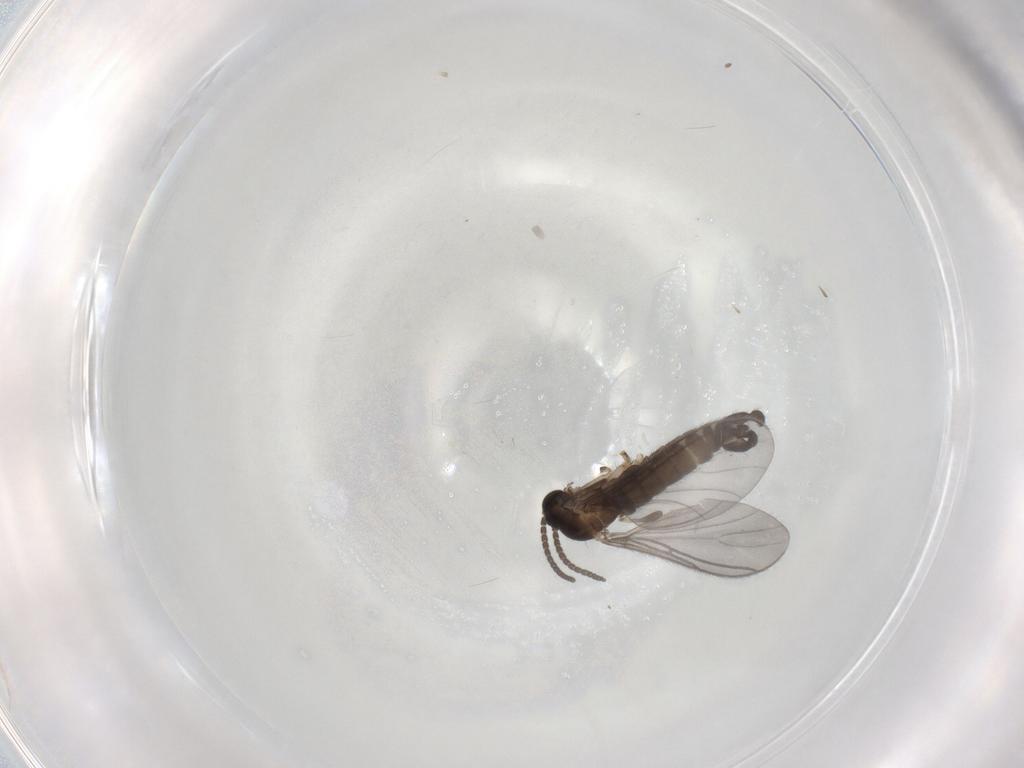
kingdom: Animalia
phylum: Arthropoda
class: Insecta
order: Diptera
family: Sciaridae
